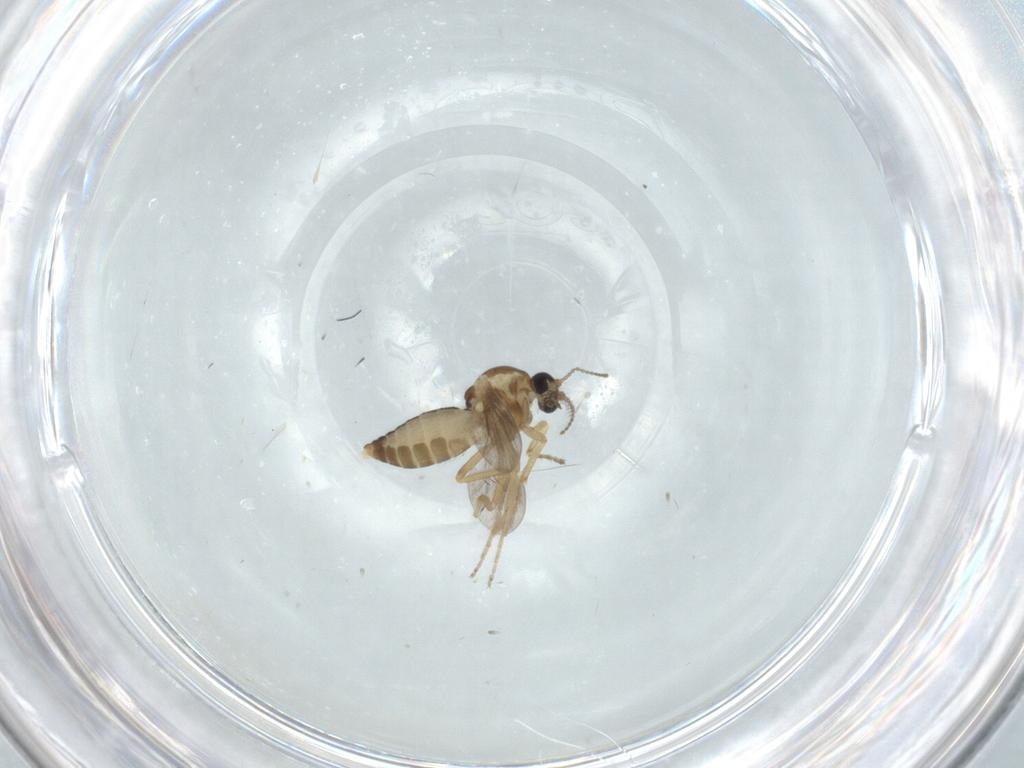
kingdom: Animalia
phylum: Arthropoda
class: Insecta
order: Diptera
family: Ceratopogonidae
